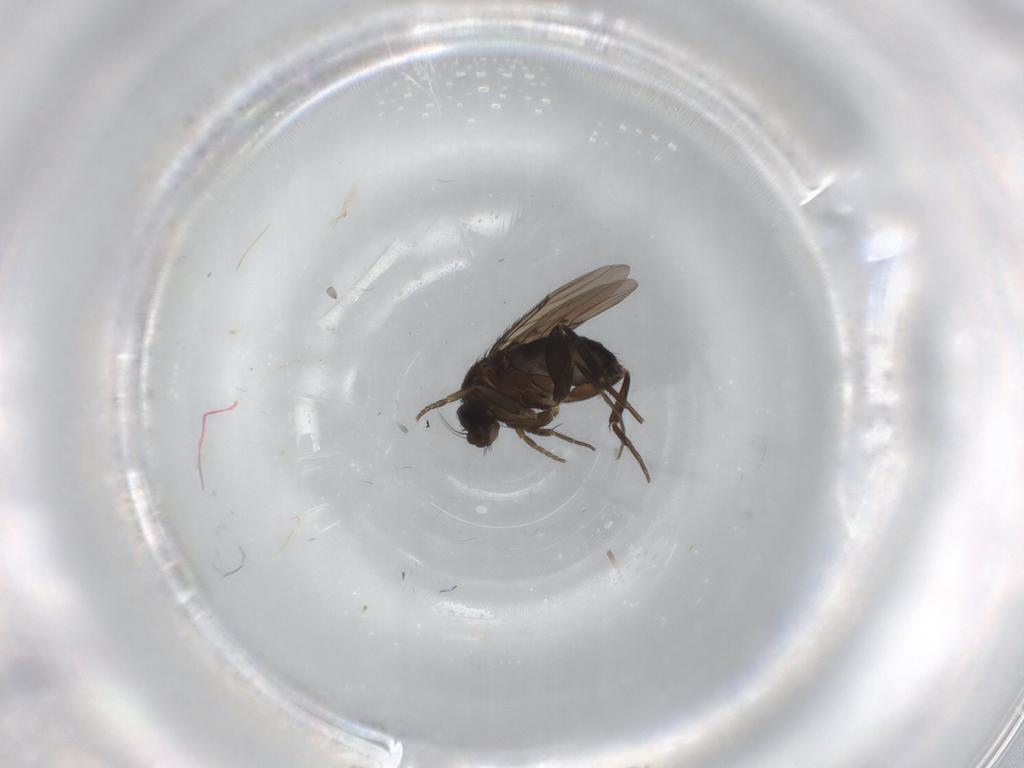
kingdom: Animalia
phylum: Arthropoda
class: Insecta
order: Diptera
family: Phoridae
